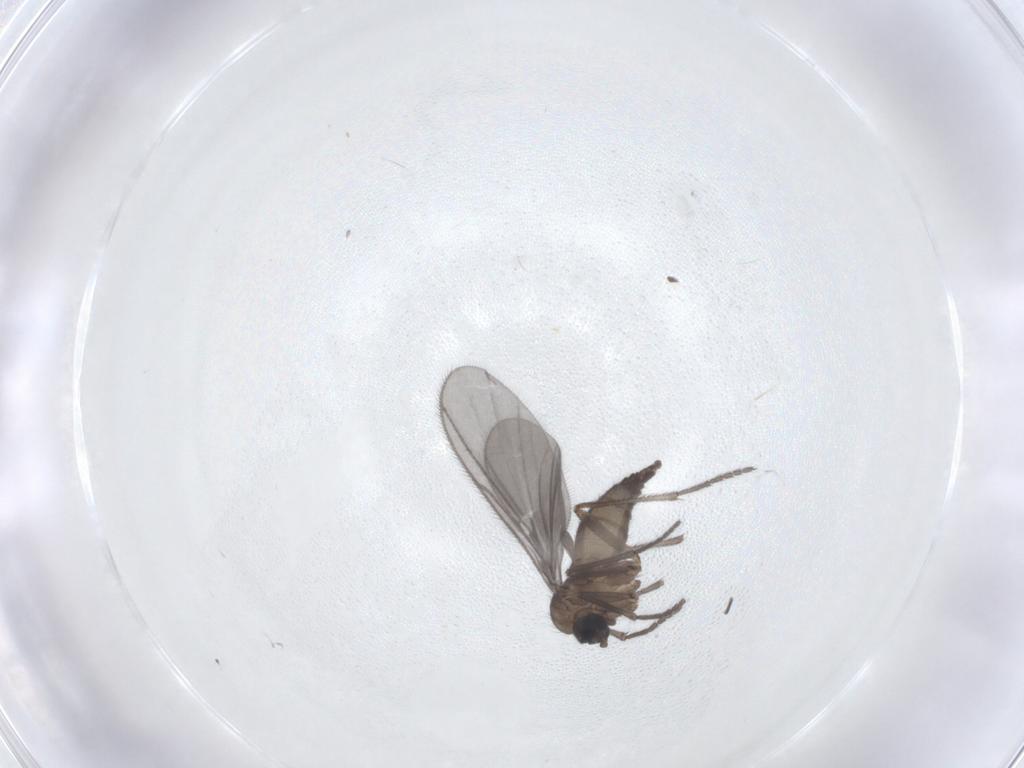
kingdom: Animalia
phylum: Arthropoda
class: Insecta
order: Diptera
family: Sciaridae
